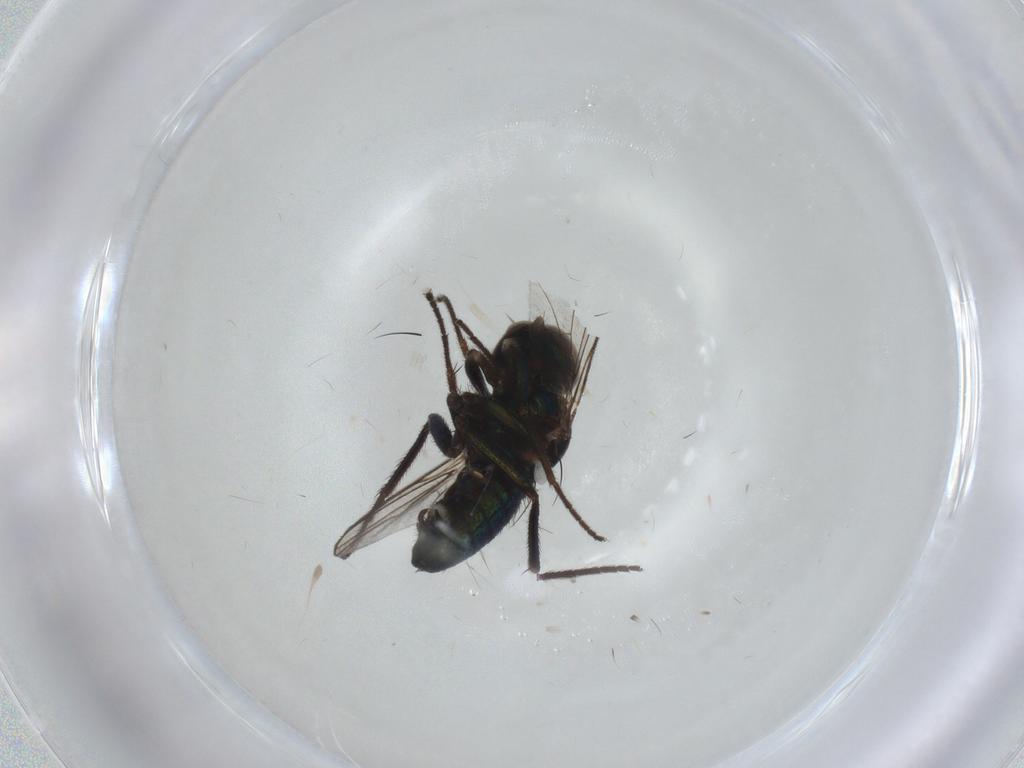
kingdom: Animalia
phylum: Arthropoda
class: Insecta
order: Diptera
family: Dolichopodidae
